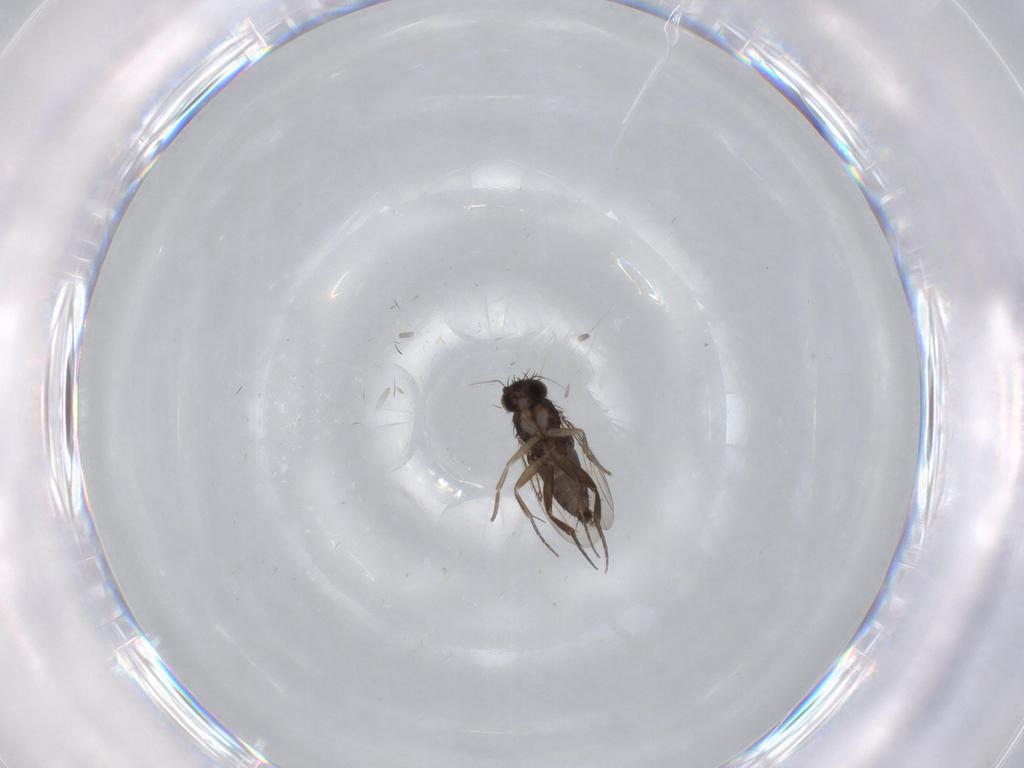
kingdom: Animalia
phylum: Arthropoda
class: Insecta
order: Diptera
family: Phoridae
